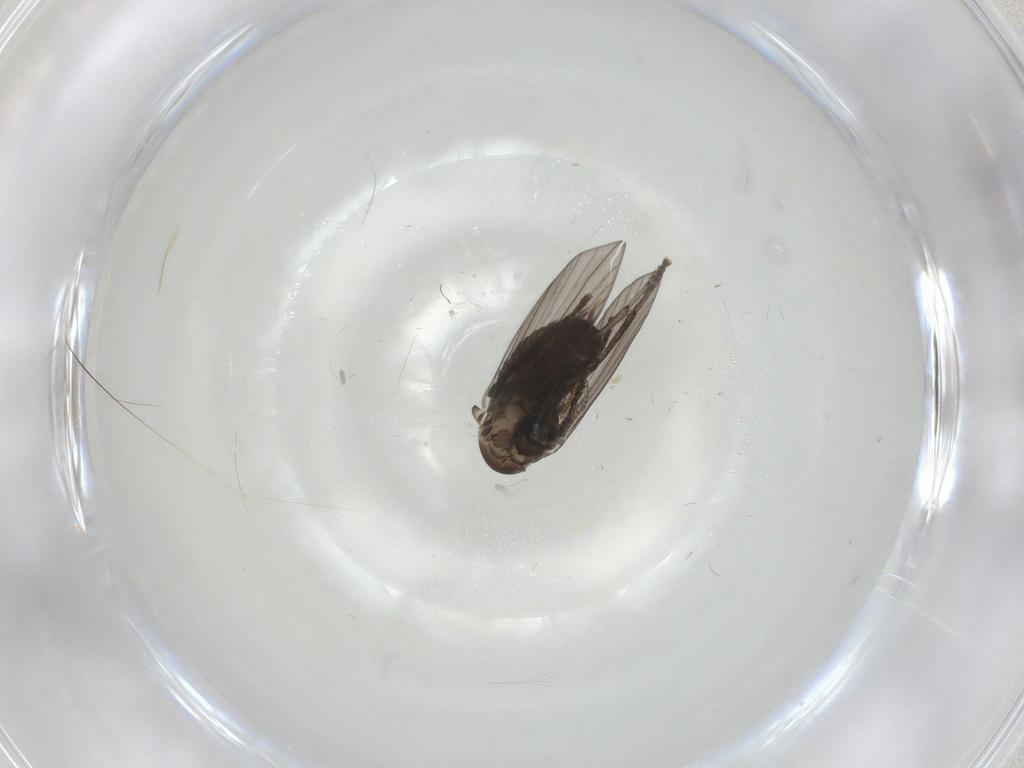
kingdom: Animalia
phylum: Arthropoda
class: Insecta
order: Diptera
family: Psychodidae
